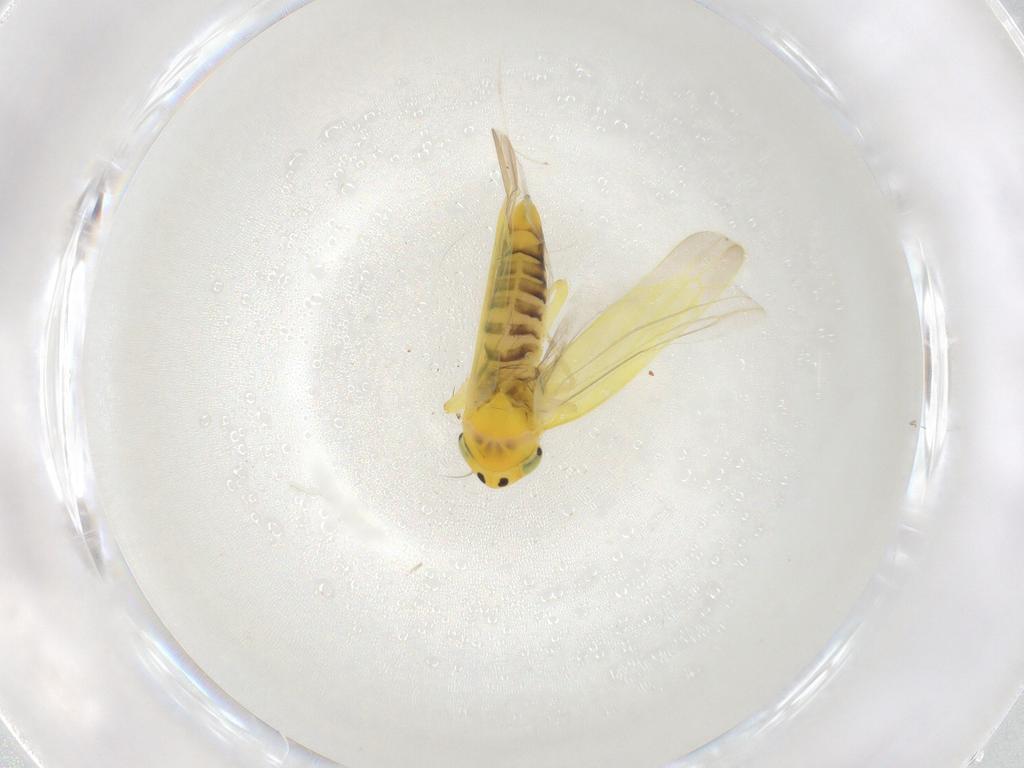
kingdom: Animalia
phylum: Arthropoda
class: Insecta
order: Hemiptera
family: Cicadellidae
